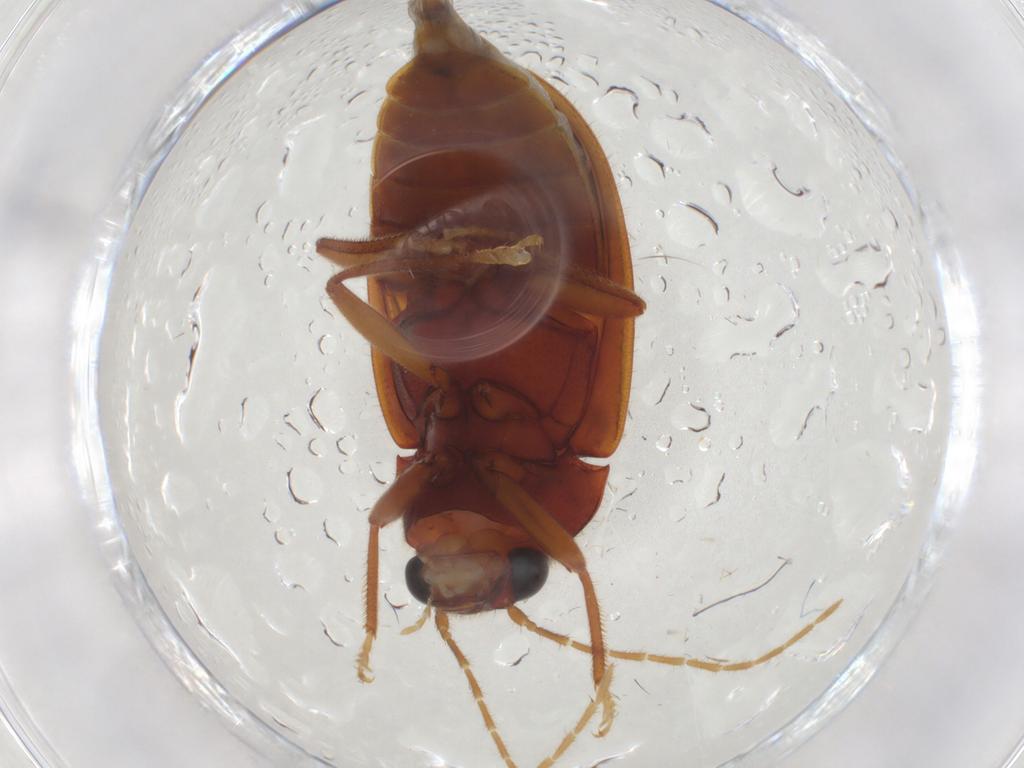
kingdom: Animalia
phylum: Arthropoda
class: Insecta
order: Coleoptera
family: Ptilodactylidae
